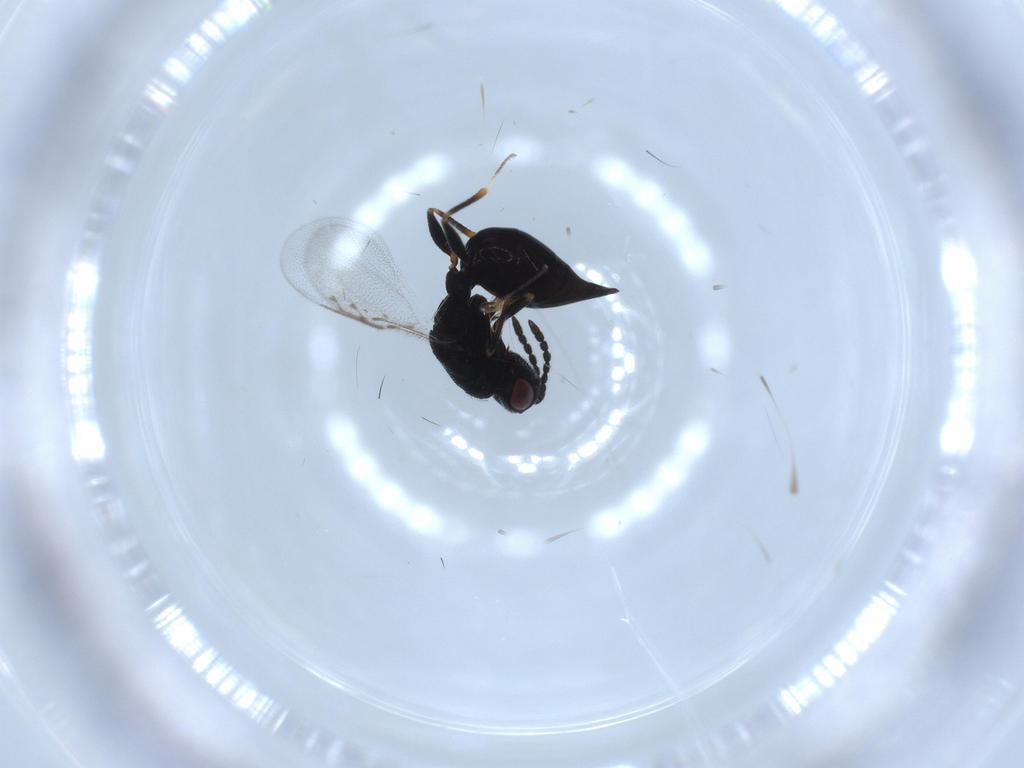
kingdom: Animalia
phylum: Arthropoda
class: Insecta
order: Hymenoptera
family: Eurytomidae
